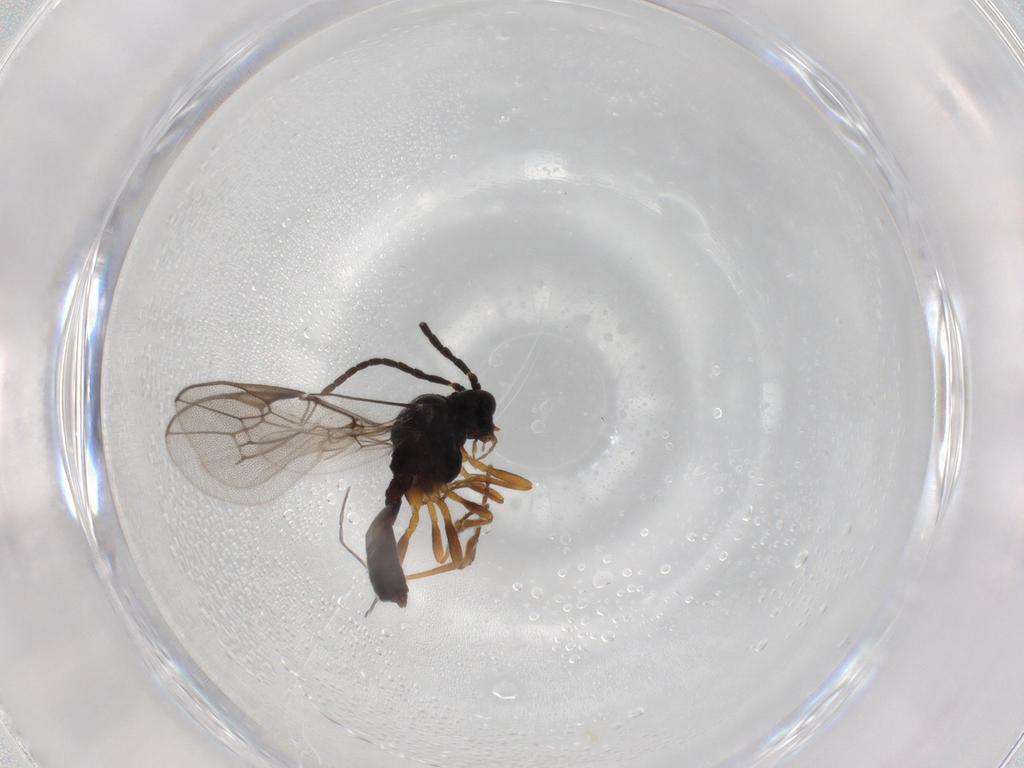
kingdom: Animalia
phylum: Arthropoda
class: Insecta
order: Hymenoptera
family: Braconidae
